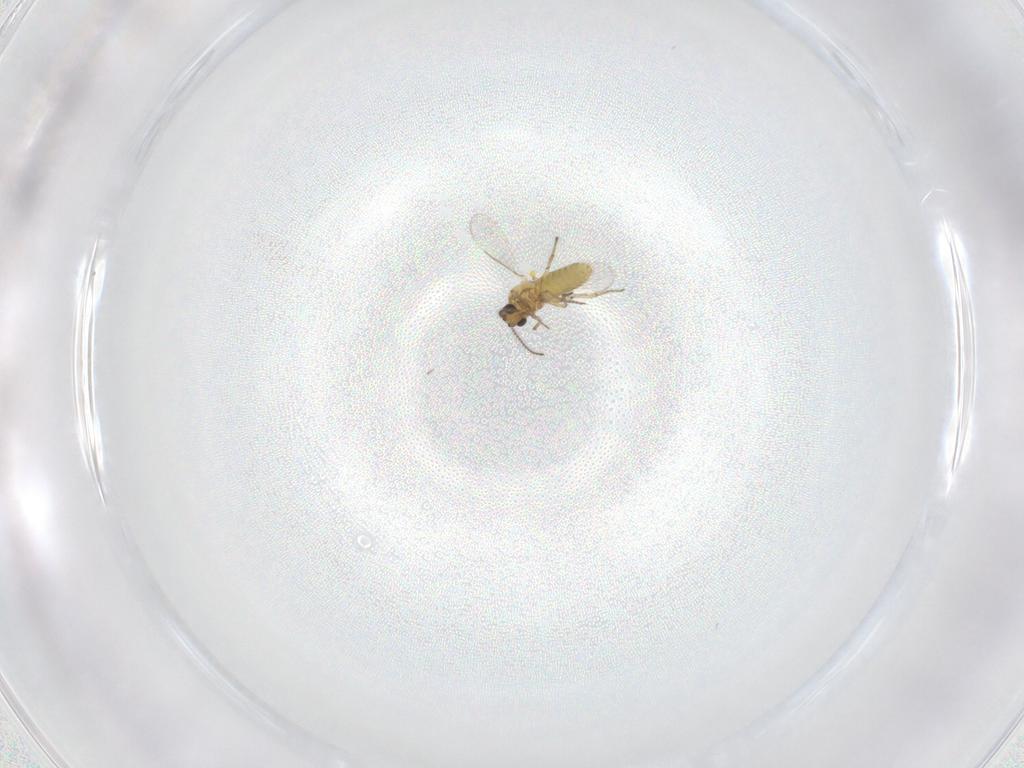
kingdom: Animalia
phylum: Arthropoda
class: Insecta
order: Diptera
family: Ceratopogonidae
